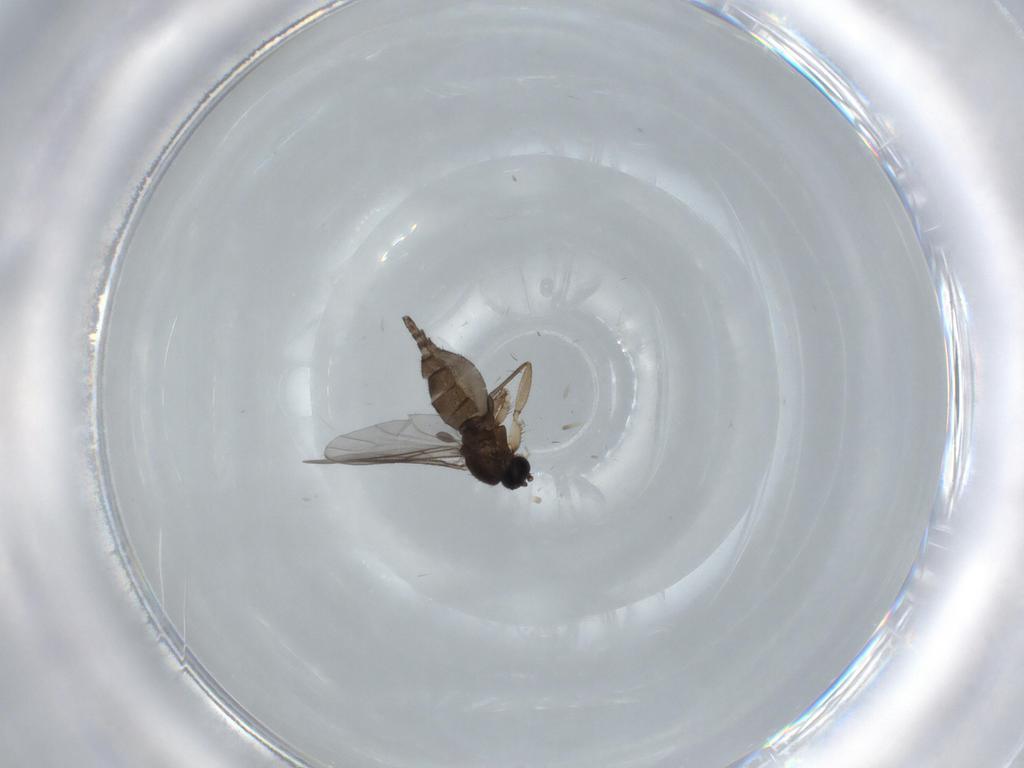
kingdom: Animalia
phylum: Arthropoda
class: Insecta
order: Diptera
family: Sciaridae
